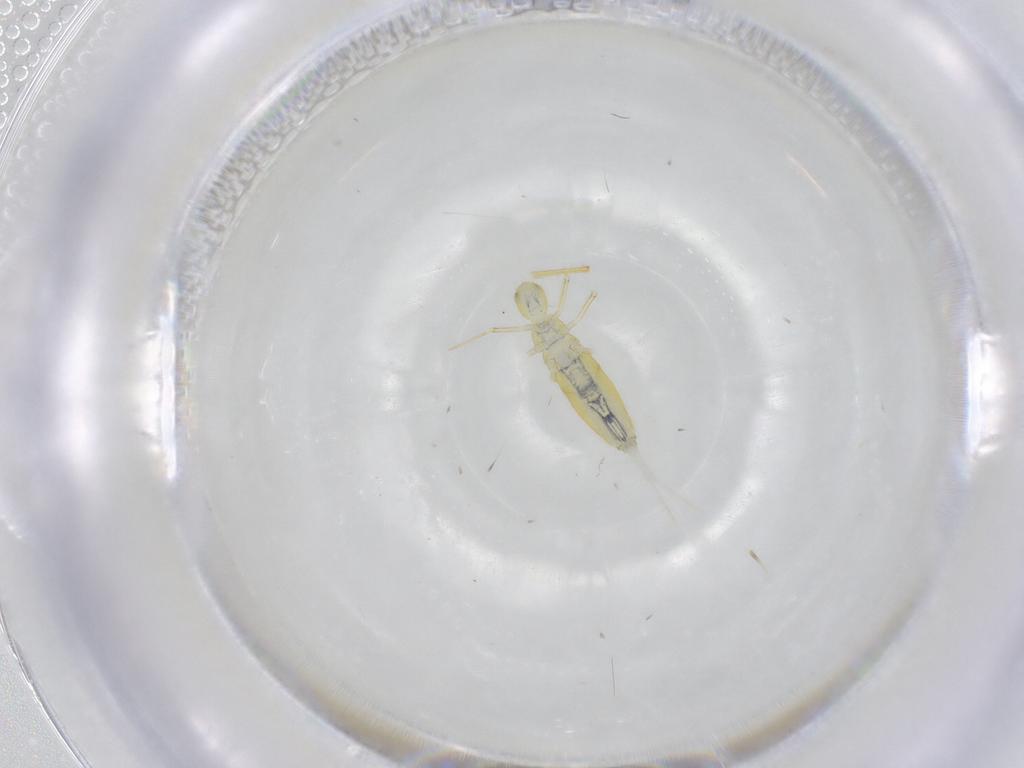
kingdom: Animalia
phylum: Arthropoda
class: Collembola
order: Entomobryomorpha
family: Paronellidae
